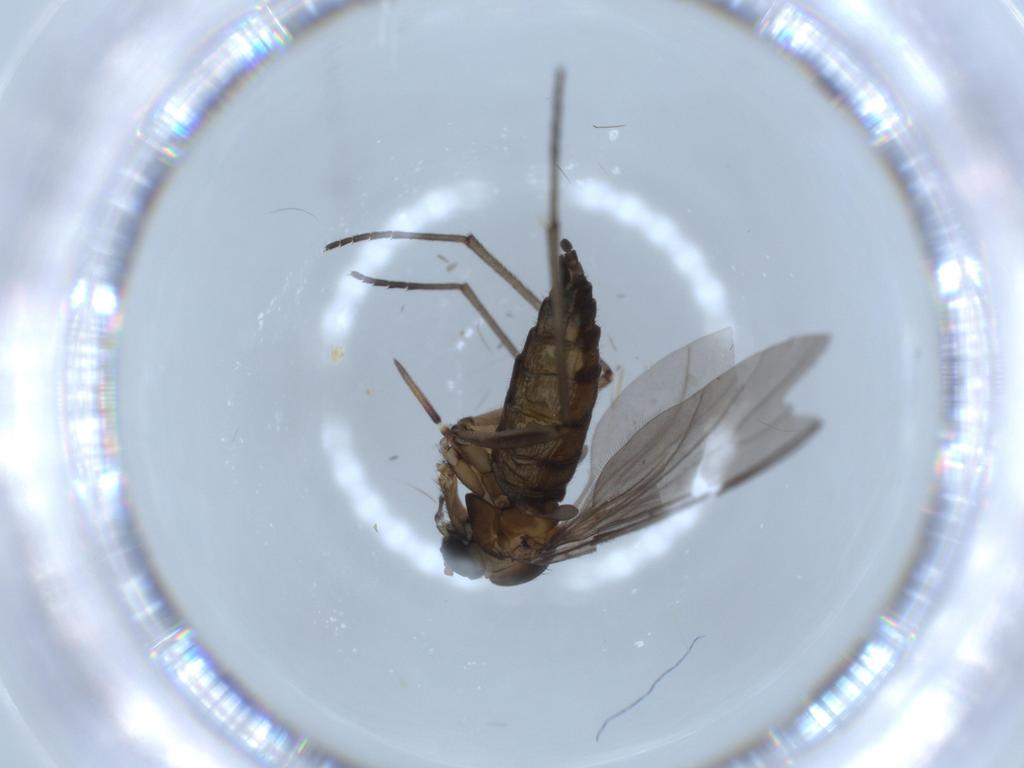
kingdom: Animalia
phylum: Arthropoda
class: Insecta
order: Diptera
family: Sciaridae
